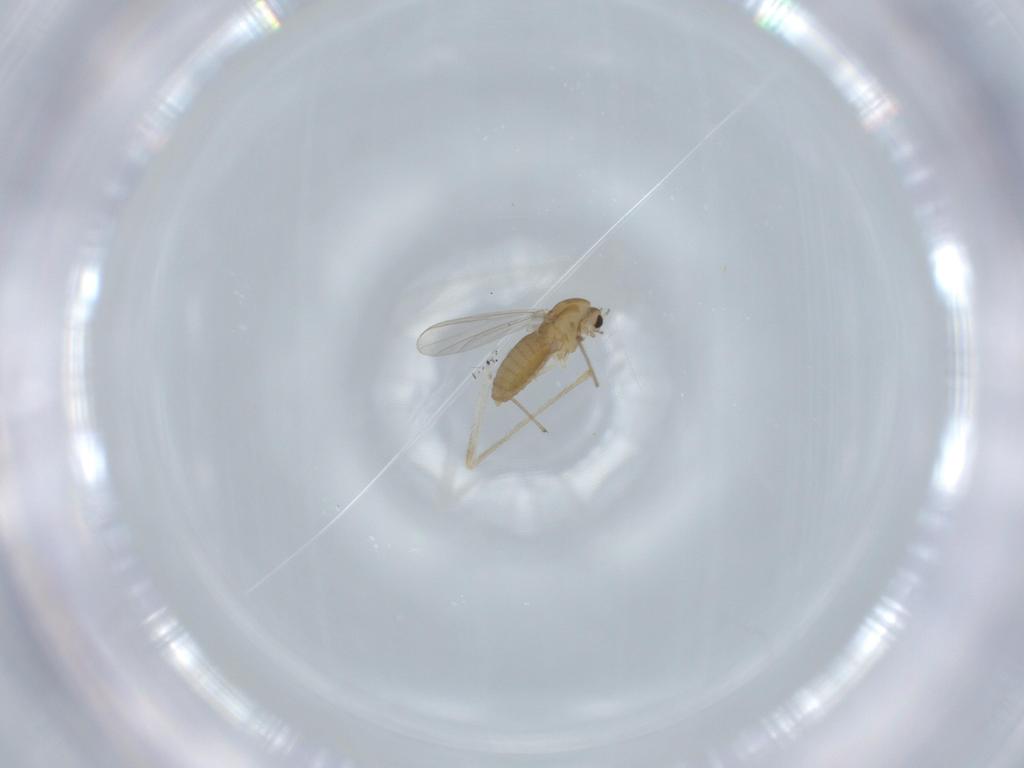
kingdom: Animalia
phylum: Arthropoda
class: Insecta
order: Diptera
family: Chironomidae
